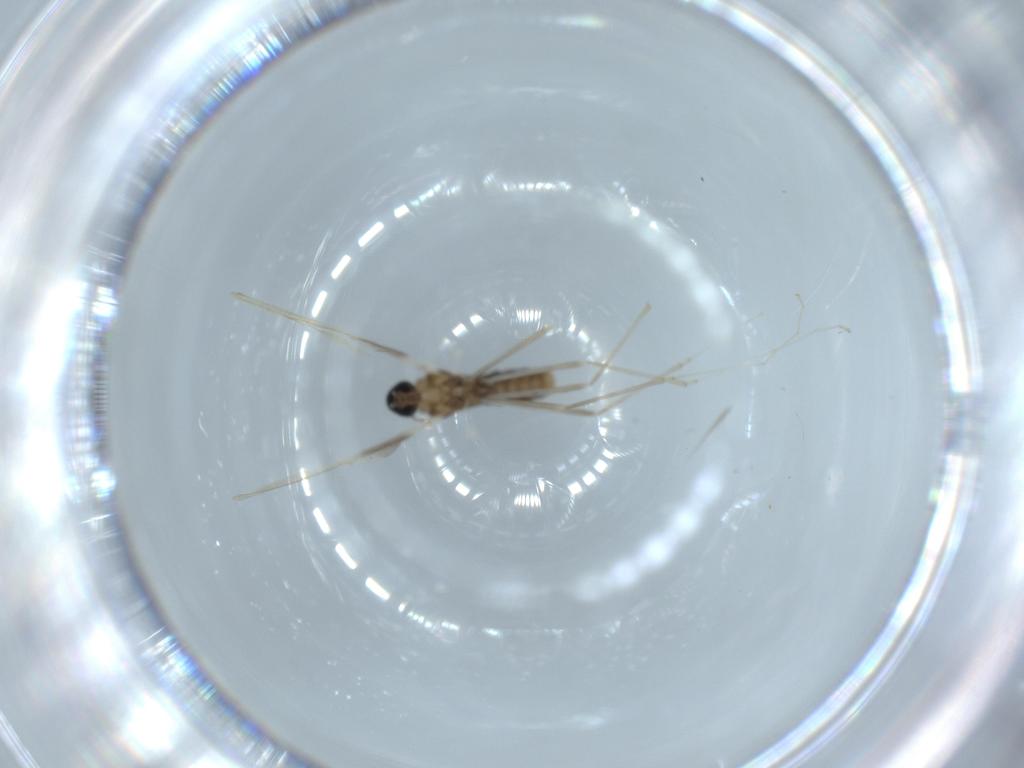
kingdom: Animalia
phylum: Arthropoda
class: Insecta
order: Diptera
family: Cecidomyiidae
